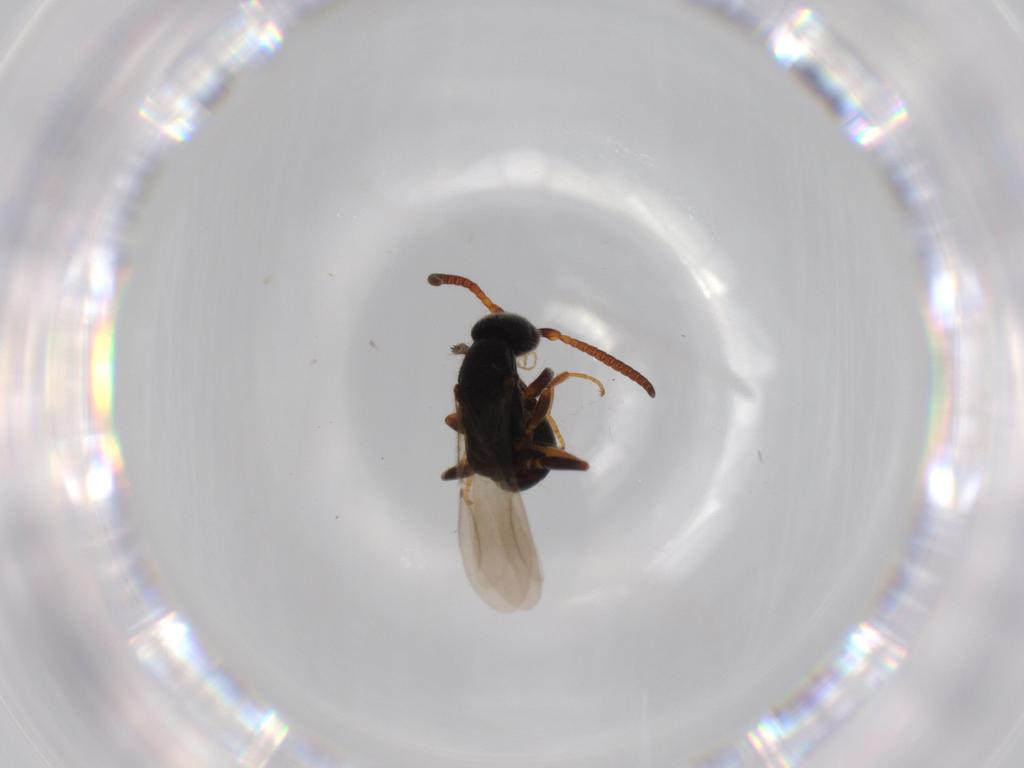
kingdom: Animalia
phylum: Arthropoda
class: Insecta
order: Hymenoptera
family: Bethylidae
